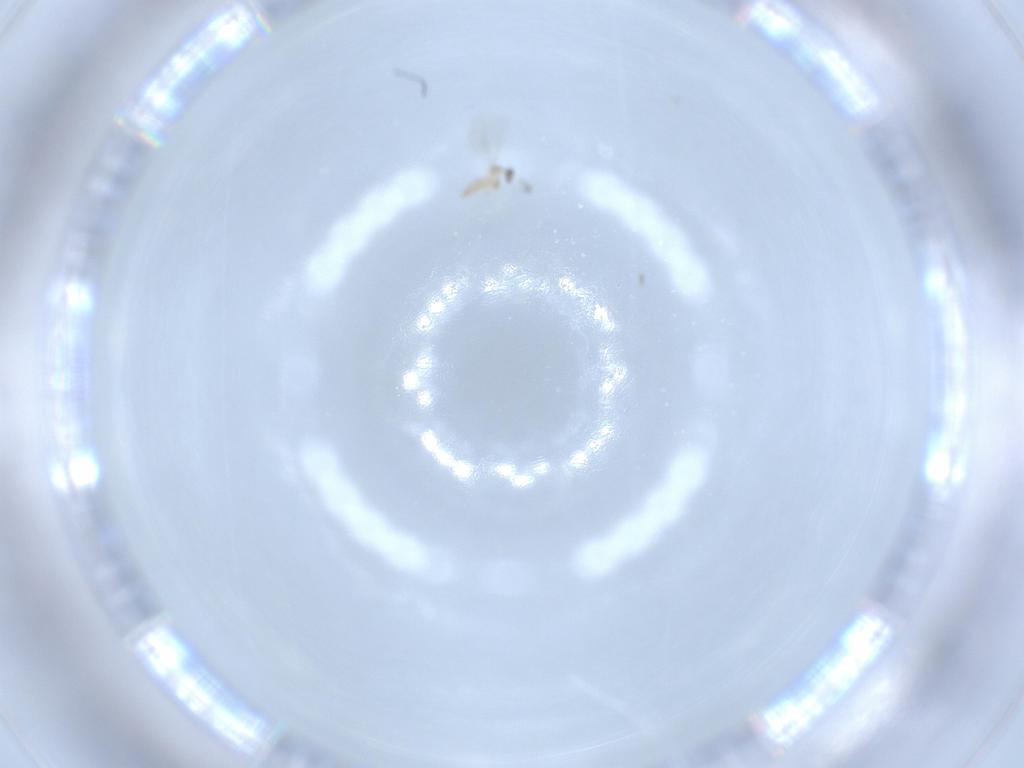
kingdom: Animalia
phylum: Arthropoda
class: Insecta
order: Diptera
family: Cecidomyiidae
